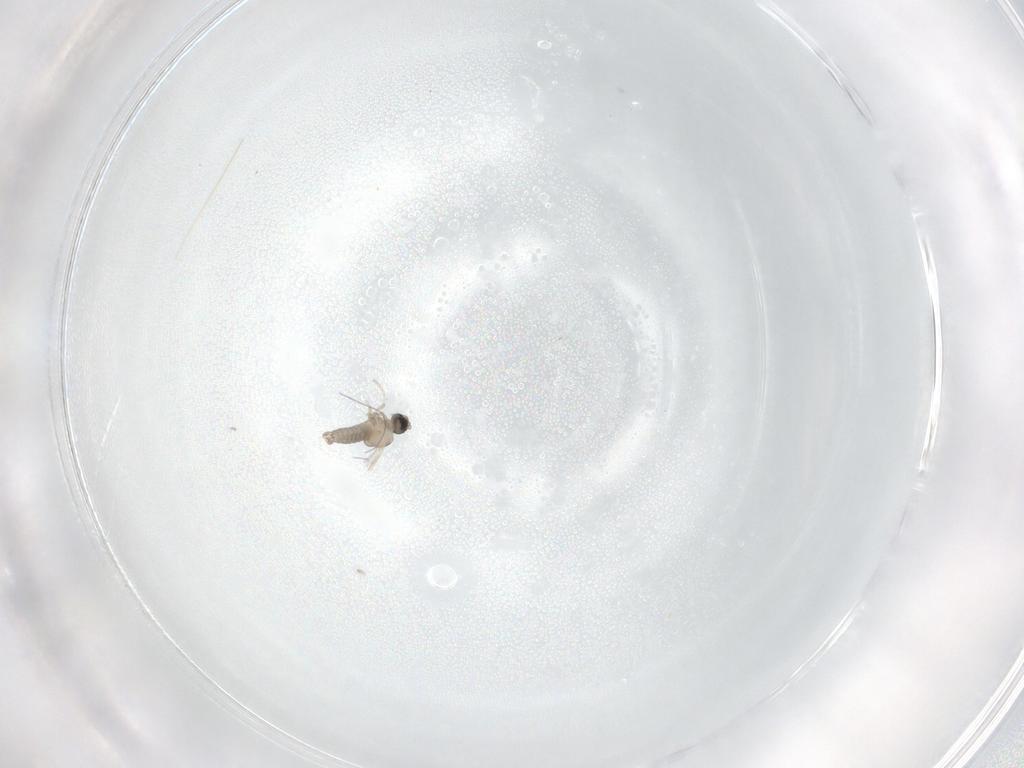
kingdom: Animalia
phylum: Arthropoda
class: Insecta
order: Diptera
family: Cecidomyiidae
